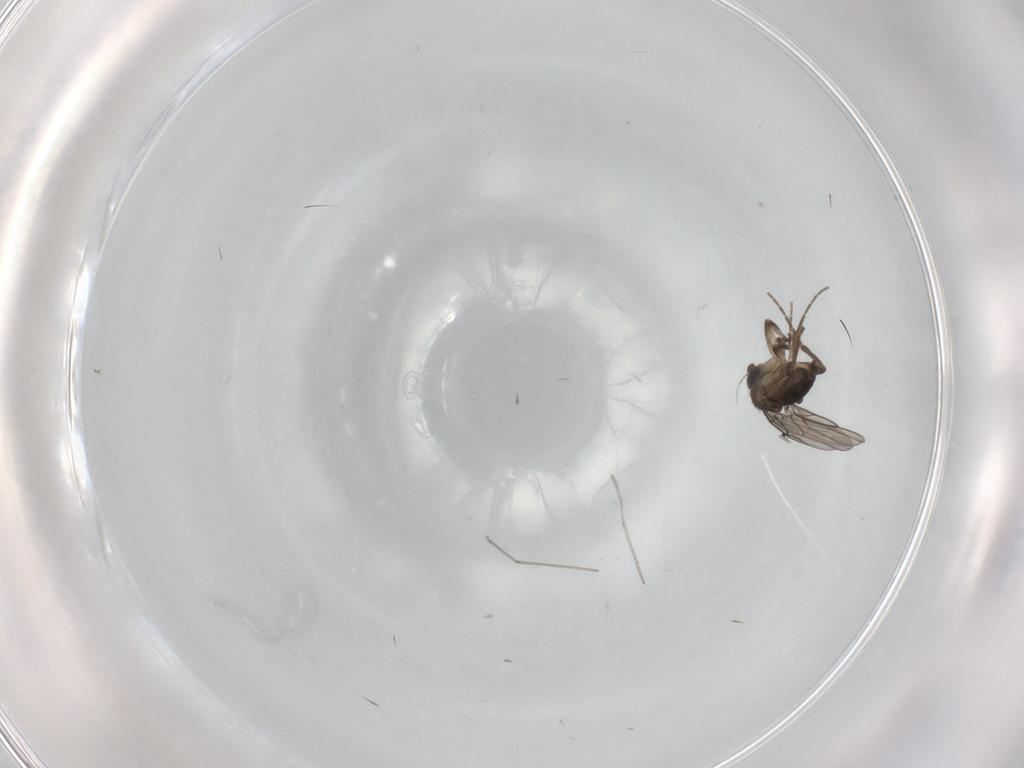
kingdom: Animalia
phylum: Arthropoda
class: Insecta
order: Diptera
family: Cecidomyiidae
